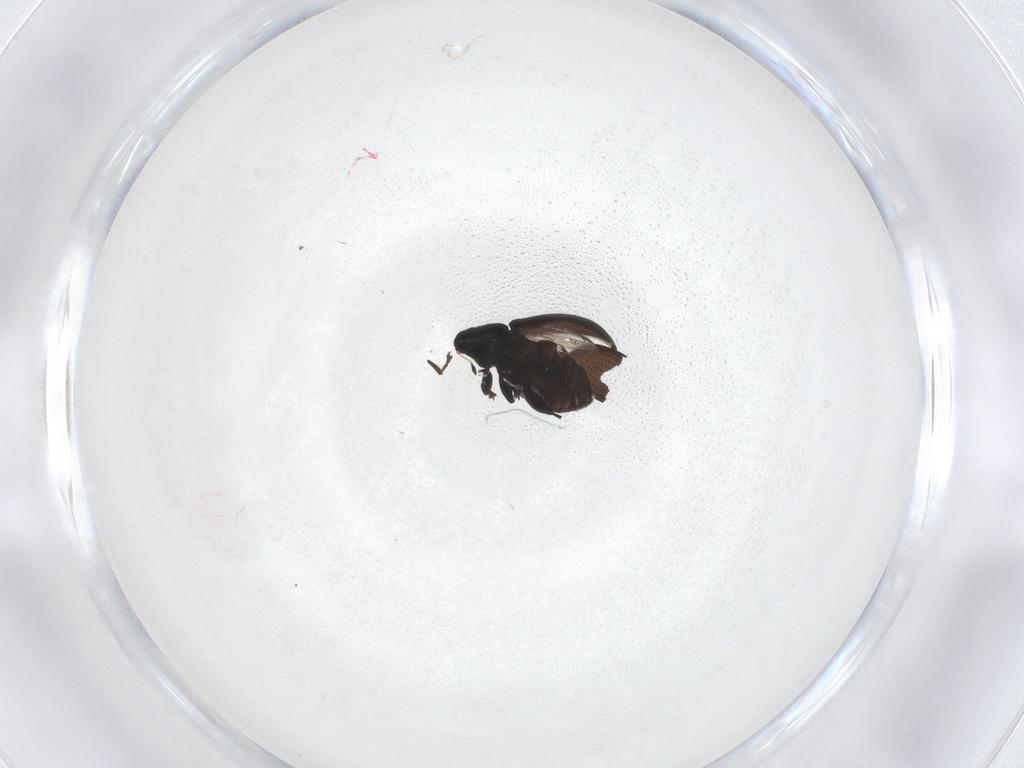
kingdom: Animalia
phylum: Arthropoda
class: Insecta
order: Coleoptera
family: Curculionidae
